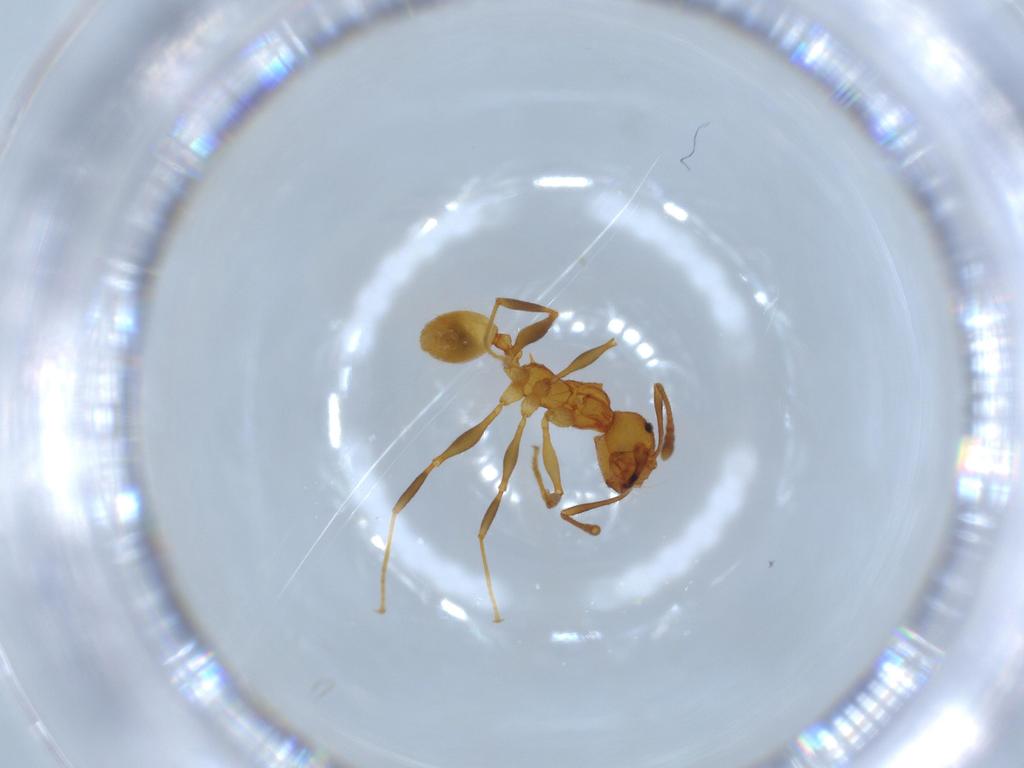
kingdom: Animalia
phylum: Arthropoda
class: Insecta
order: Hymenoptera
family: Formicidae
